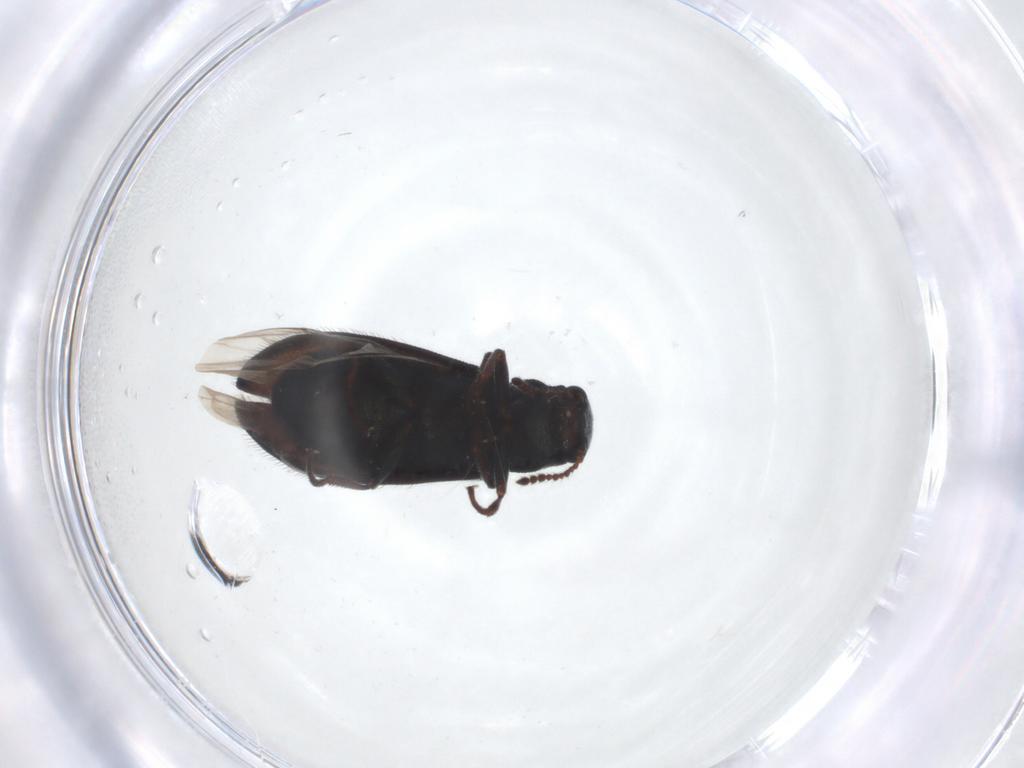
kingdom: Animalia
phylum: Arthropoda
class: Insecta
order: Coleoptera
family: Melyridae
